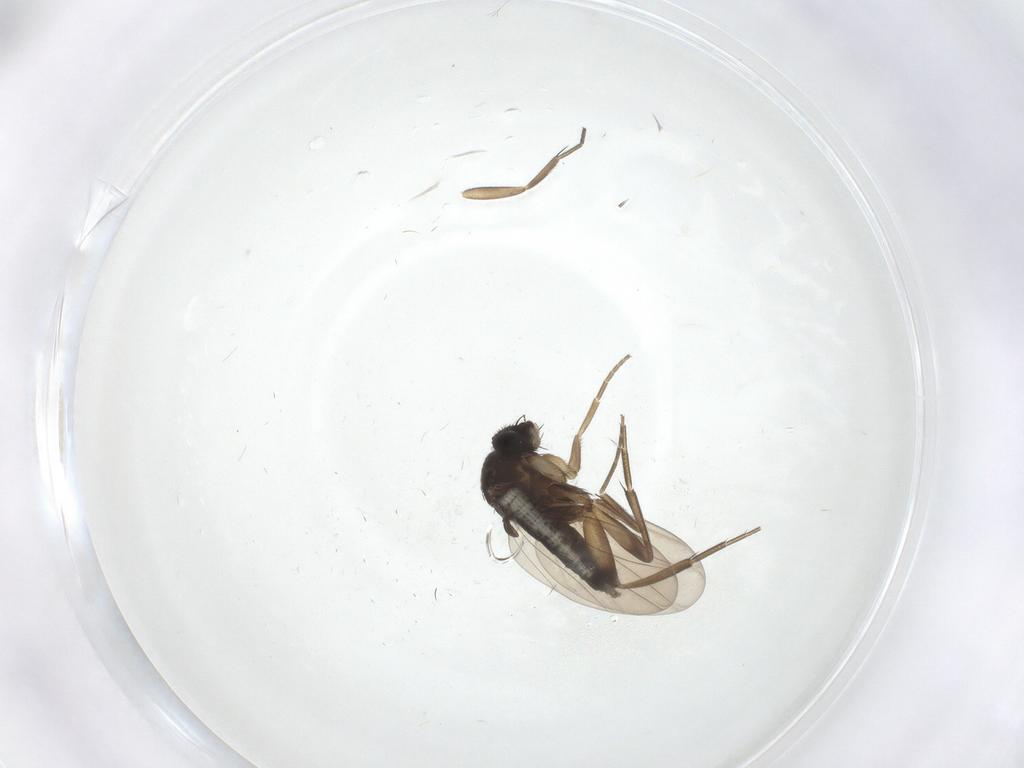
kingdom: Animalia
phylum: Arthropoda
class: Insecta
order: Diptera
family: Phoridae
